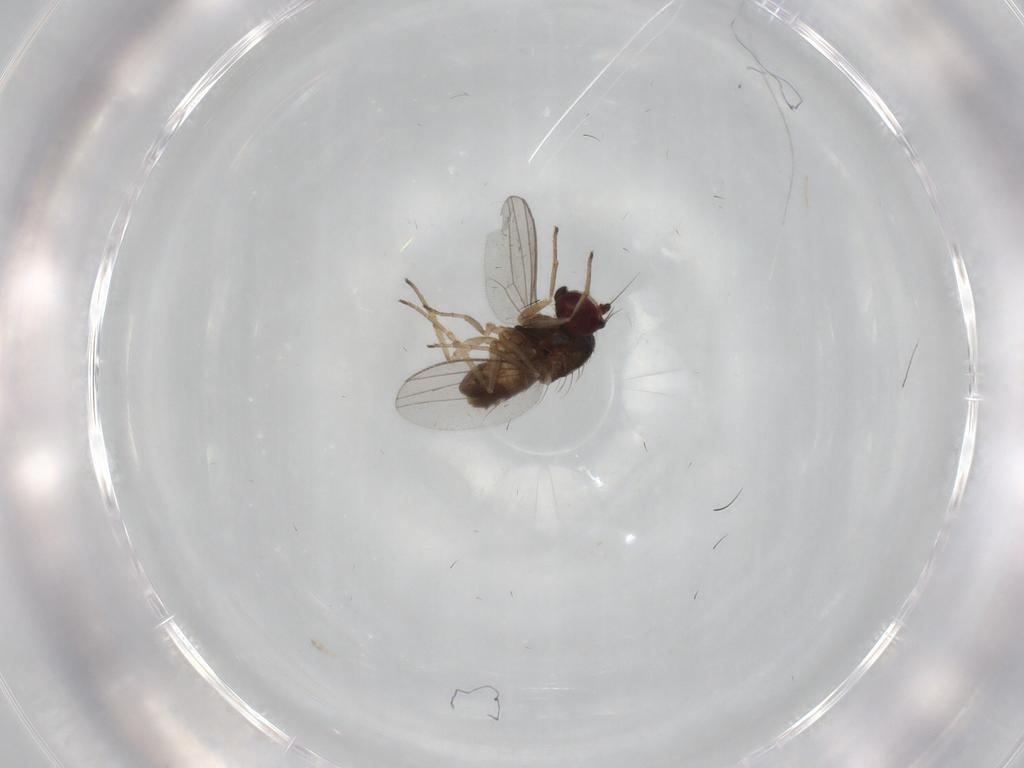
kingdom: Animalia
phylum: Arthropoda
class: Insecta
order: Diptera
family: Dolichopodidae
